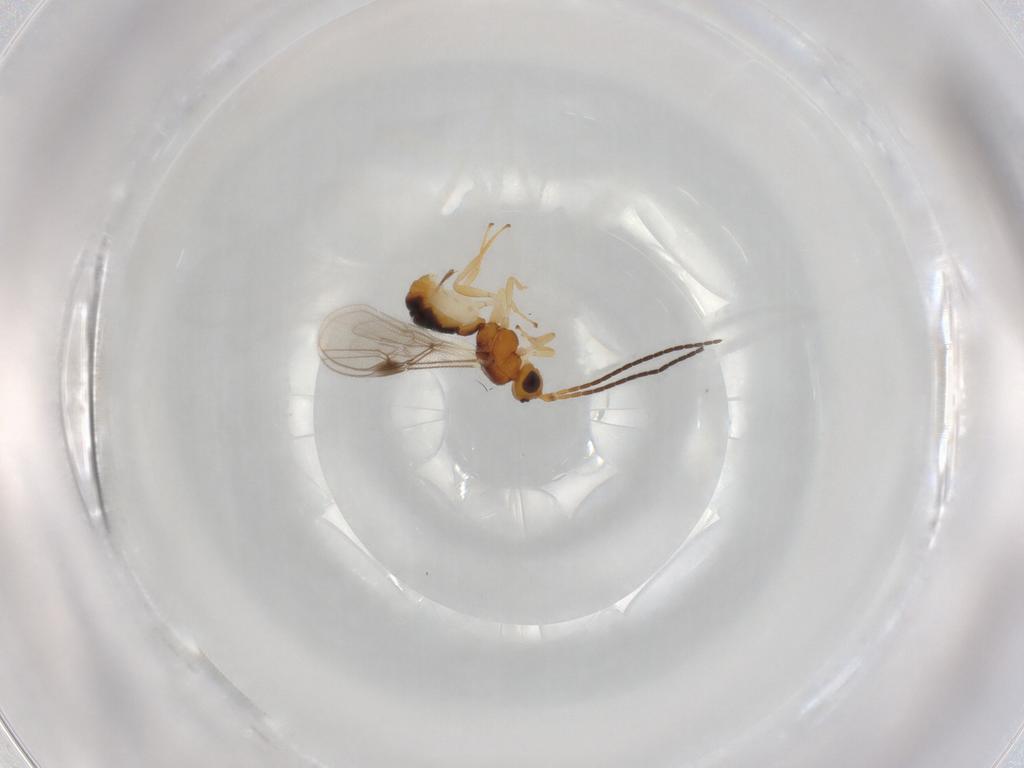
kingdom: Animalia
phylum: Arthropoda
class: Insecta
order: Hymenoptera
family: Braconidae
